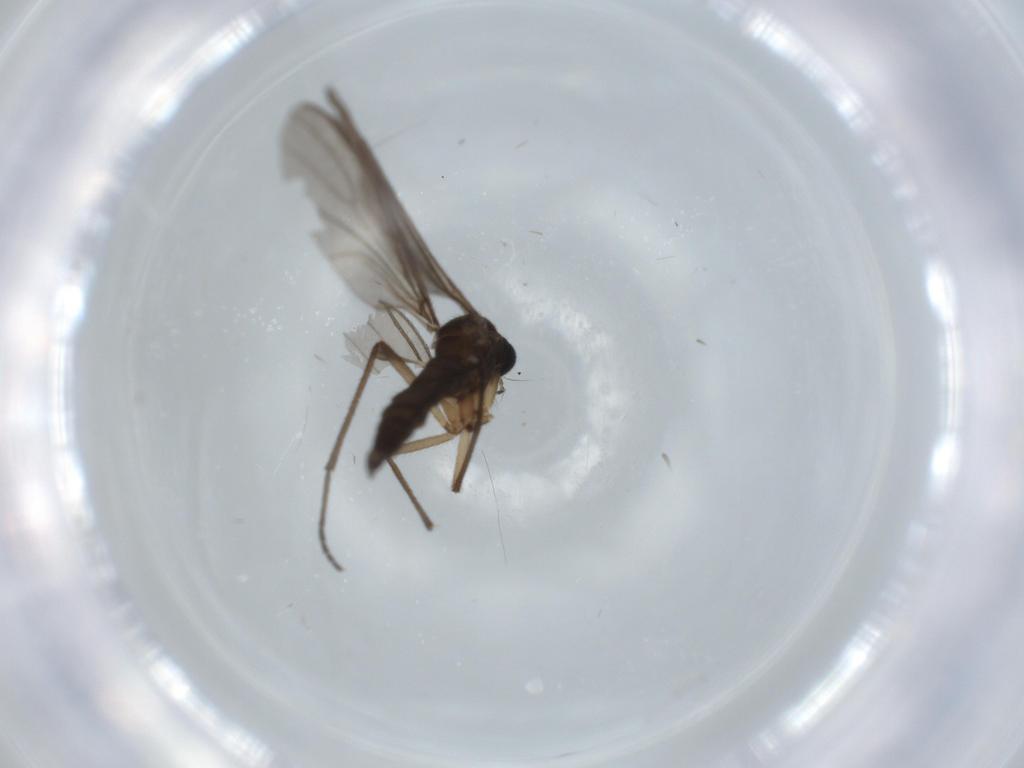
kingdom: Animalia
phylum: Arthropoda
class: Insecta
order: Diptera
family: Sciaridae
